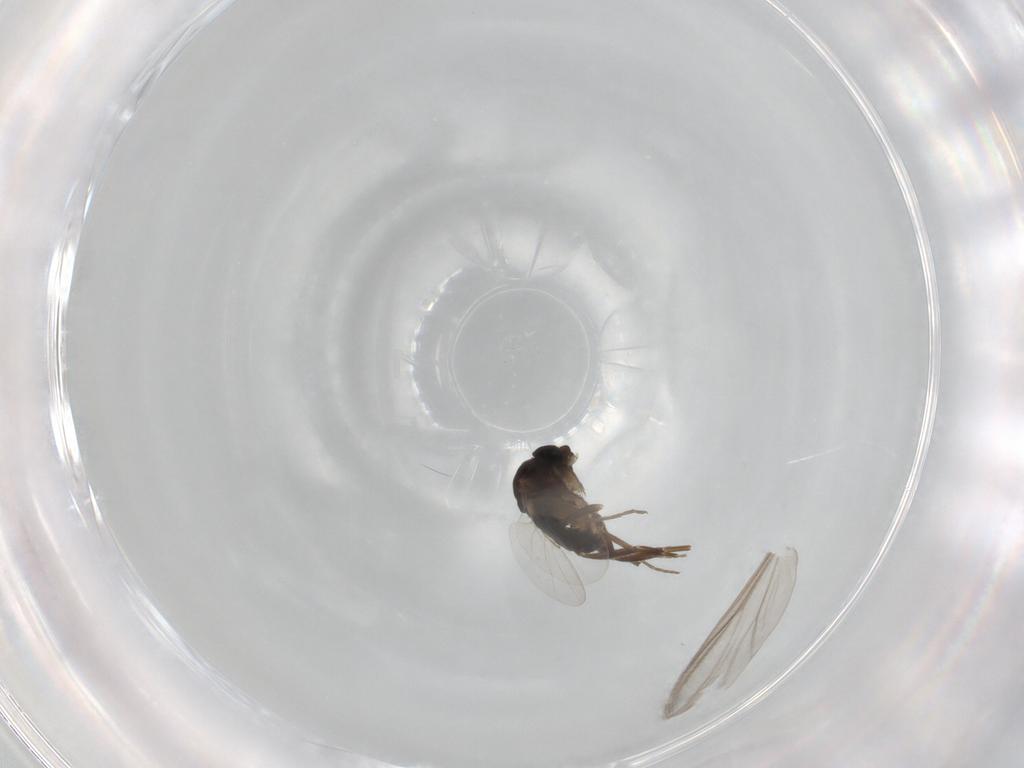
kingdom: Animalia
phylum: Arthropoda
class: Insecta
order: Diptera
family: Phoridae
